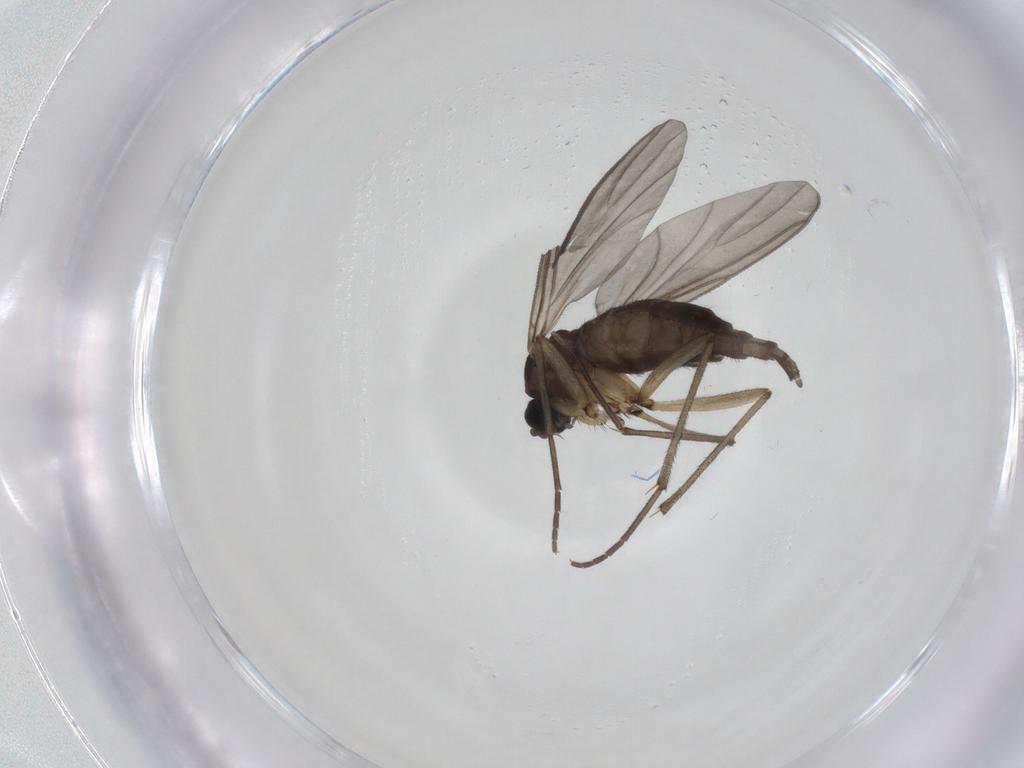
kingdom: Animalia
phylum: Arthropoda
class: Insecta
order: Diptera
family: Sciaridae
